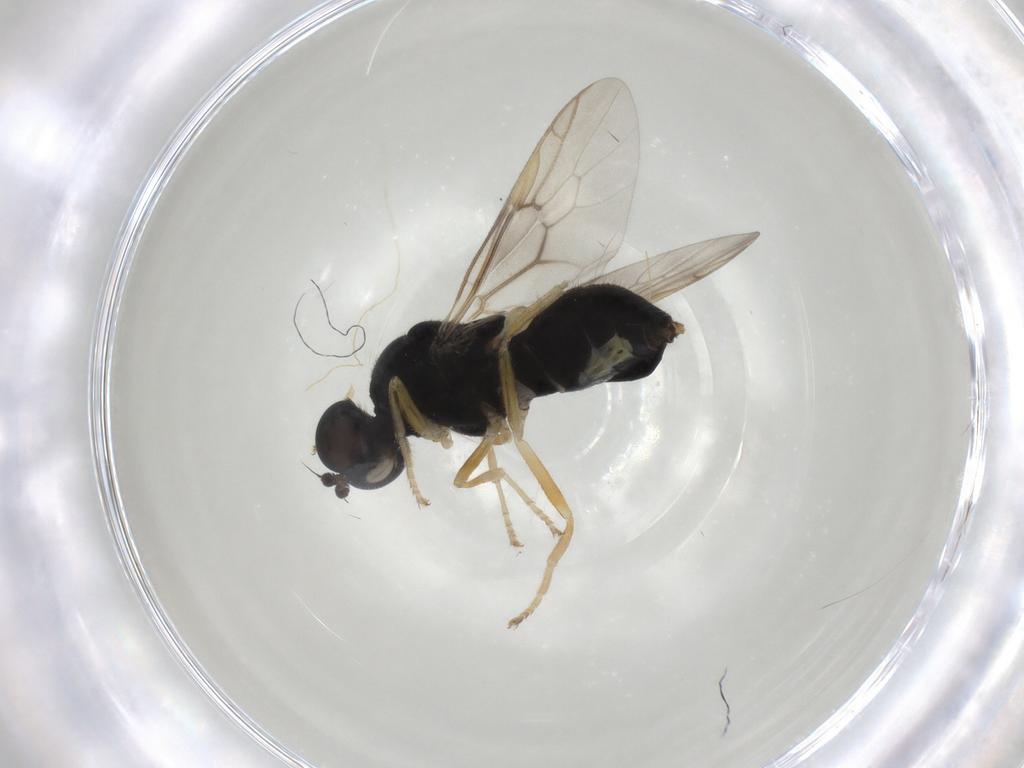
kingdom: Animalia
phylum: Arthropoda
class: Insecta
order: Diptera
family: Stratiomyidae
